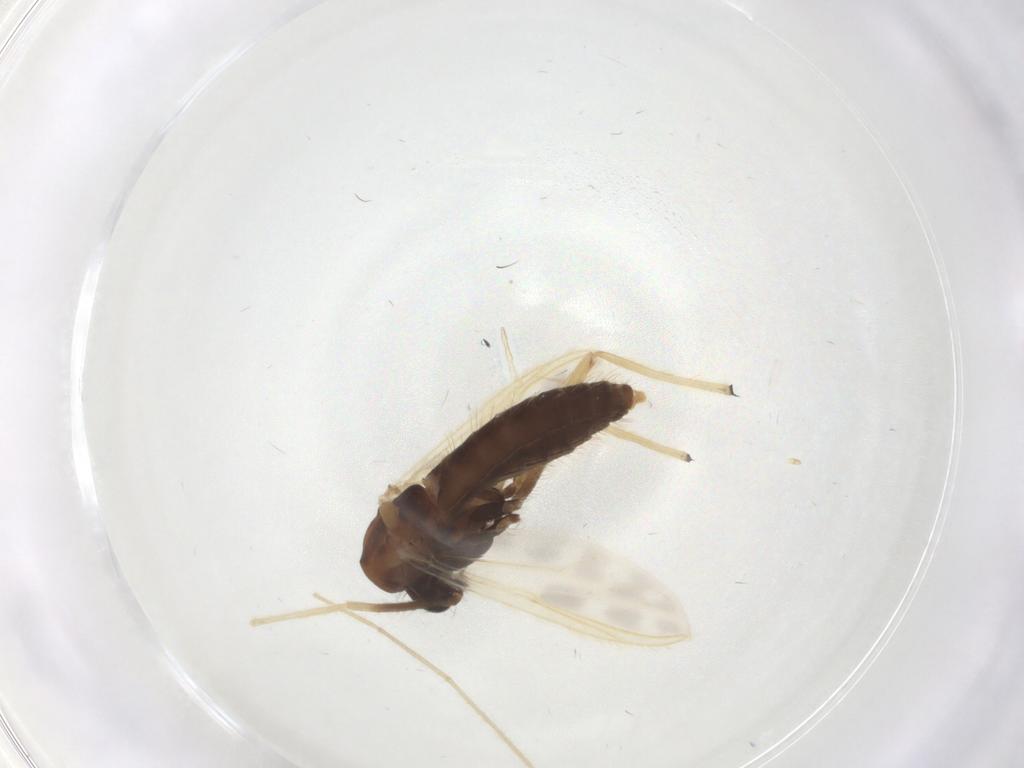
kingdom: Animalia
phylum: Arthropoda
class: Insecta
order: Diptera
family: Chironomidae
